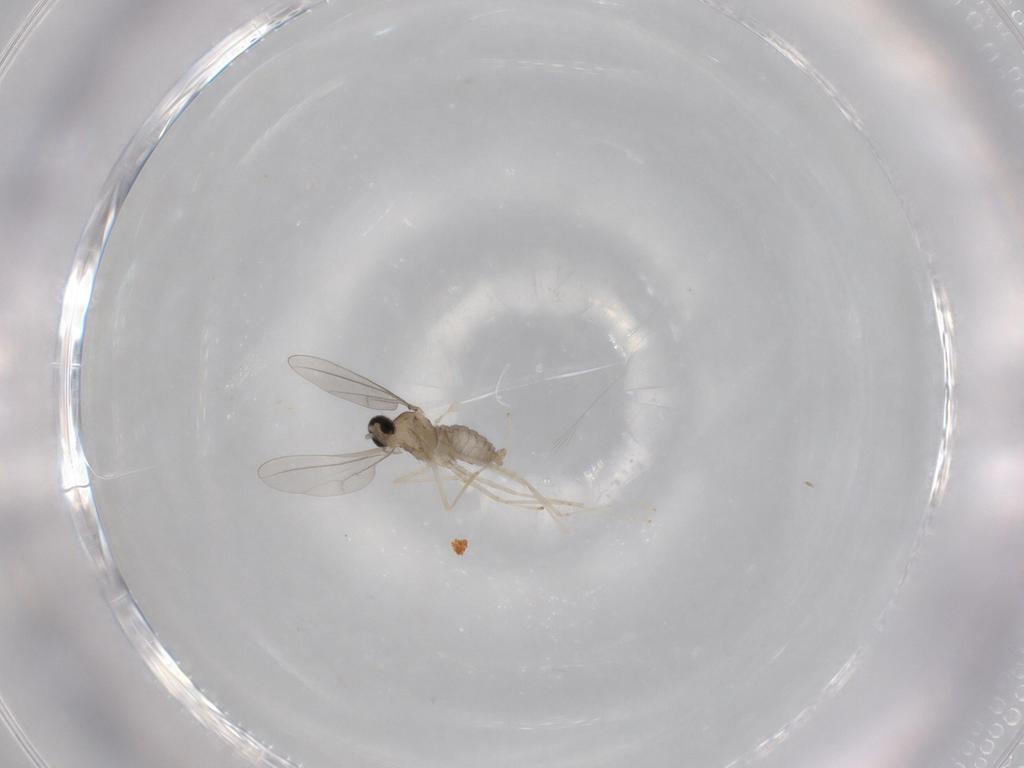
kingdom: Animalia
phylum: Arthropoda
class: Insecta
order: Diptera
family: Cecidomyiidae
